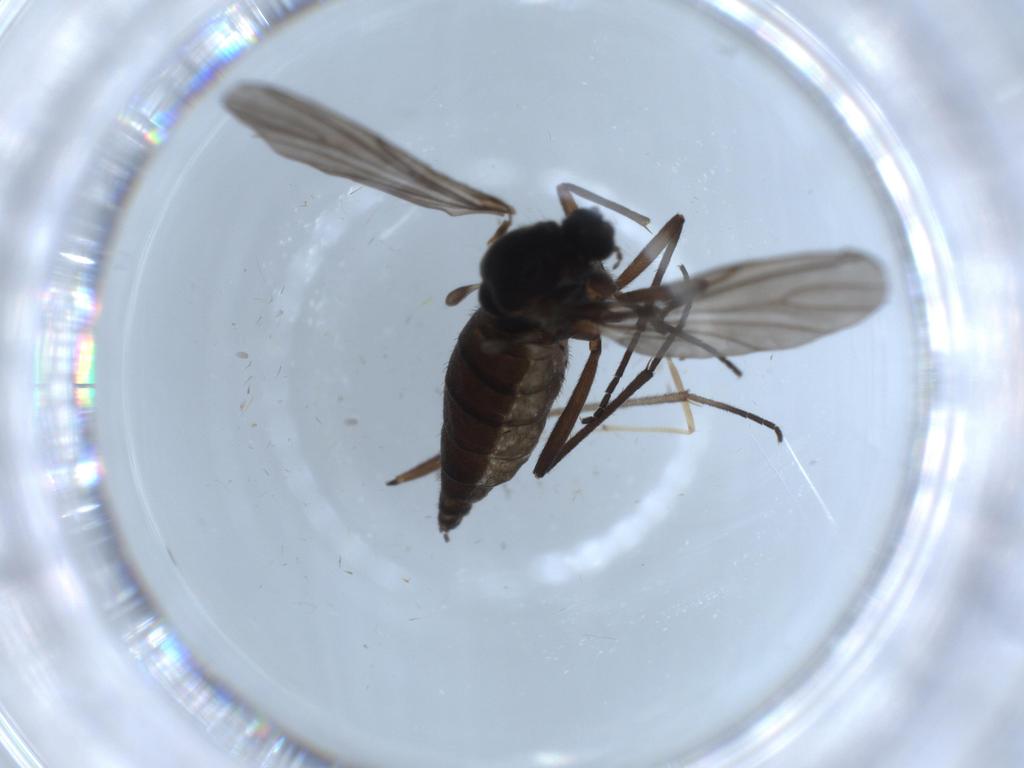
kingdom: Animalia
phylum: Arthropoda
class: Insecta
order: Diptera
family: Sciaridae
